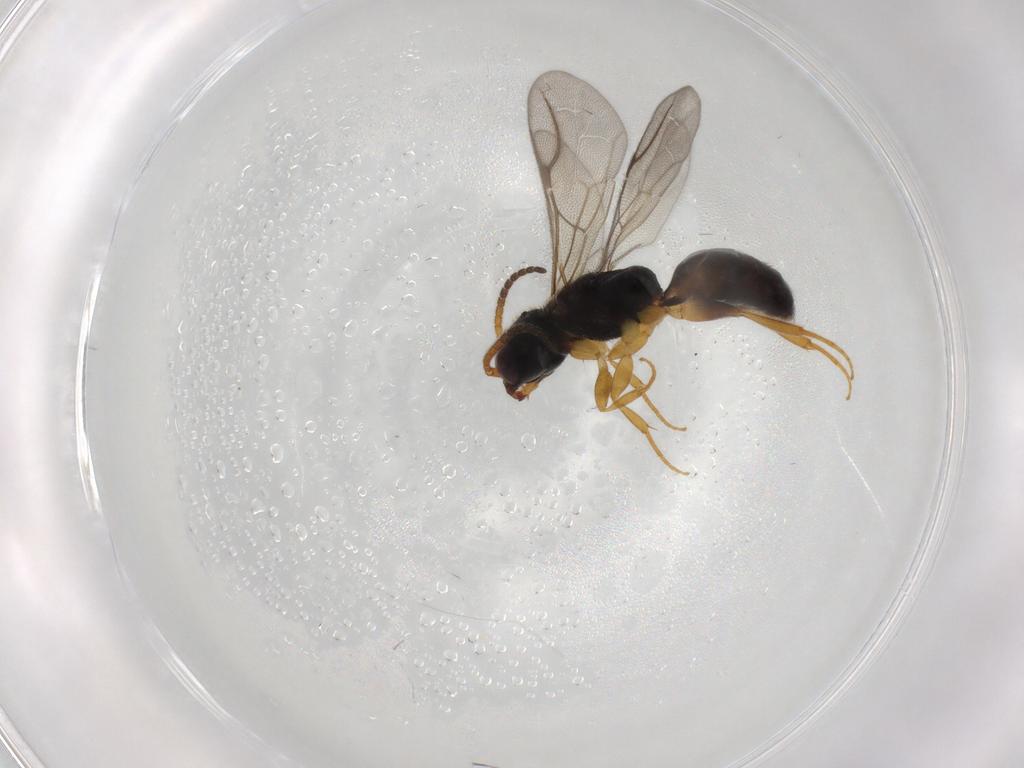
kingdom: Animalia
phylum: Arthropoda
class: Insecta
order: Hymenoptera
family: Bethylidae
